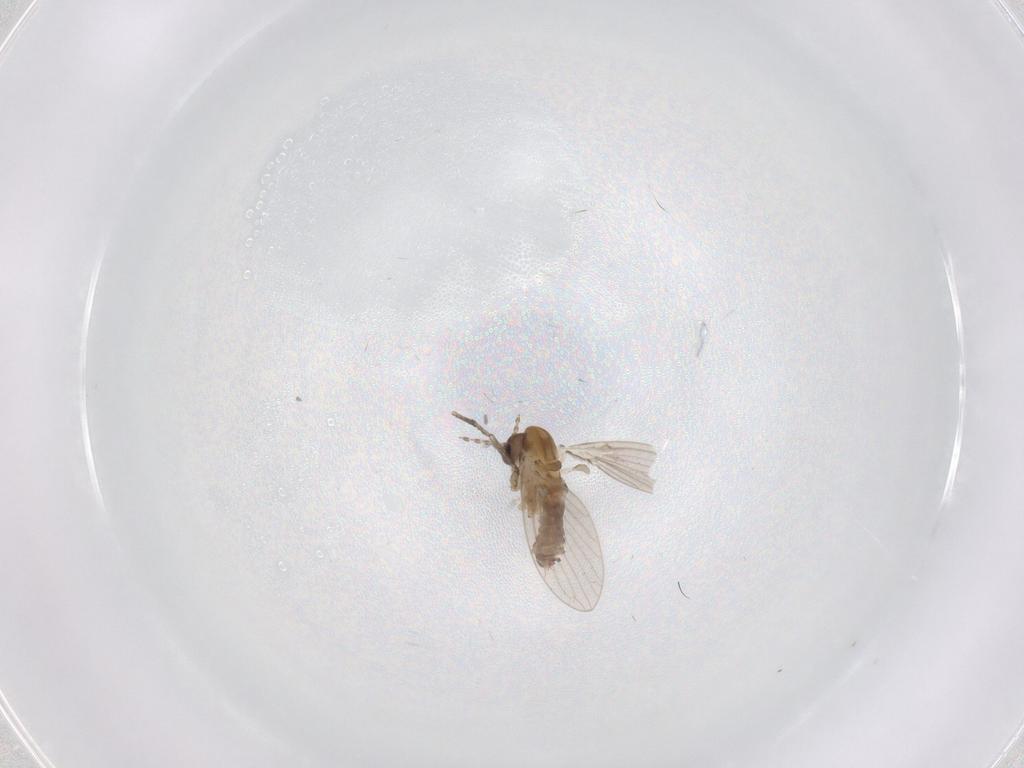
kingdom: Animalia
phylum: Arthropoda
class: Insecta
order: Diptera
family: Psychodidae
